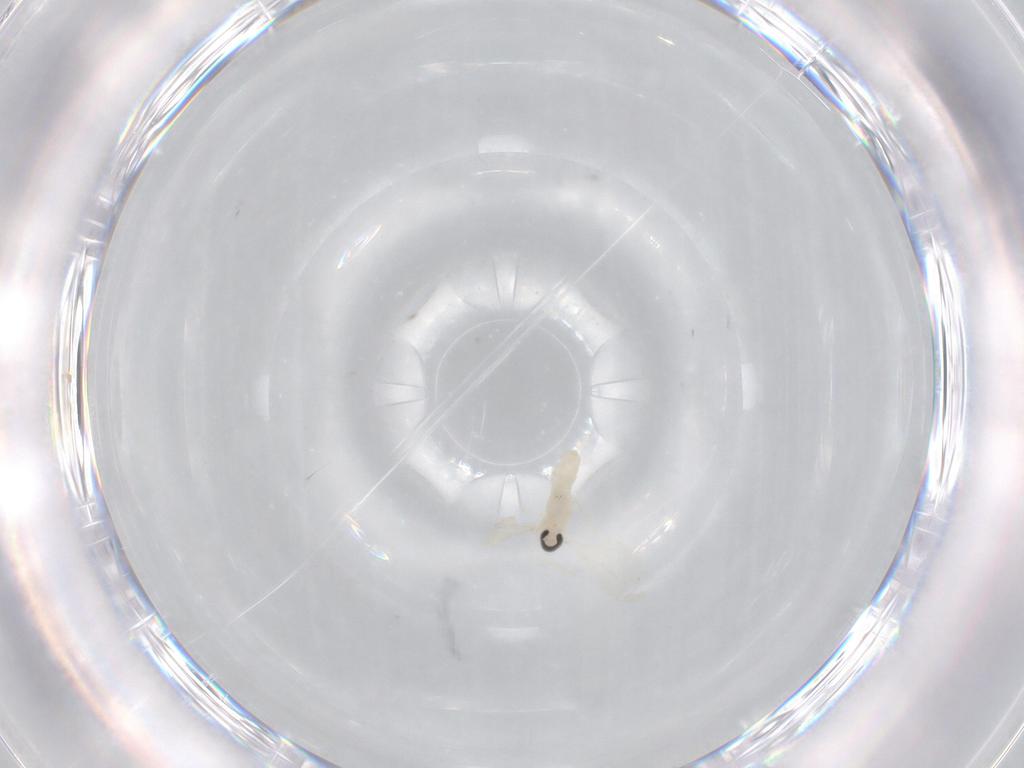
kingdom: Animalia
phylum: Arthropoda
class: Insecta
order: Diptera
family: Cecidomyiidae
